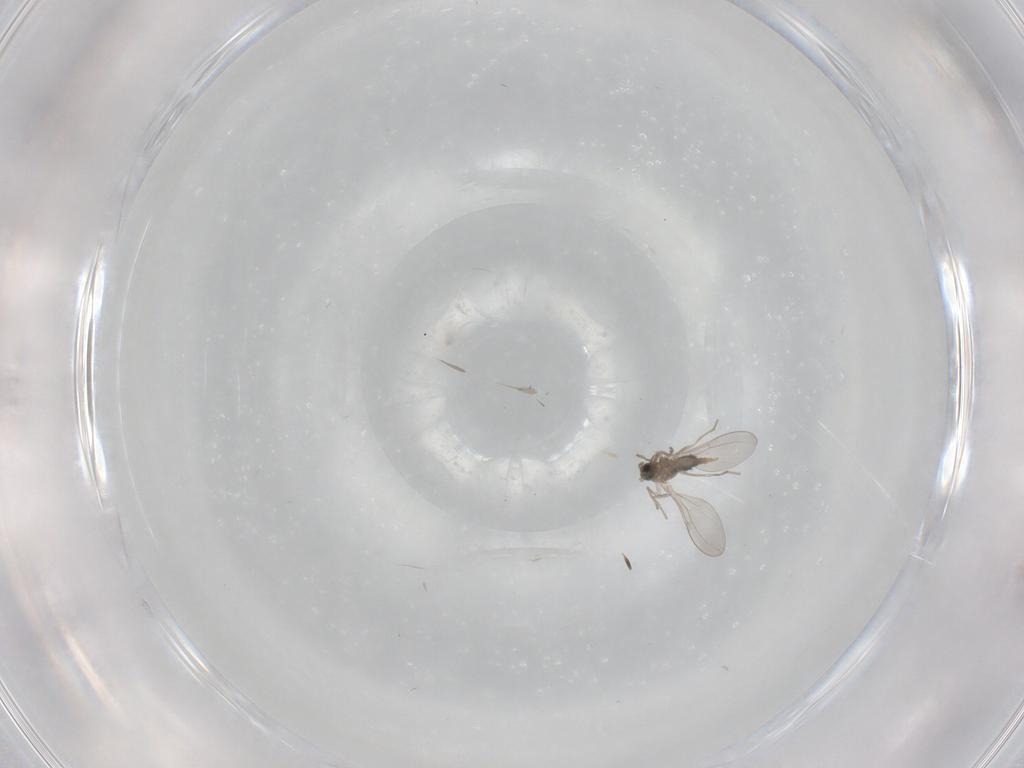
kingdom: Animalia
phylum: Arthropoda
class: Insecta
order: Diptera
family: Cecidomyiidae
